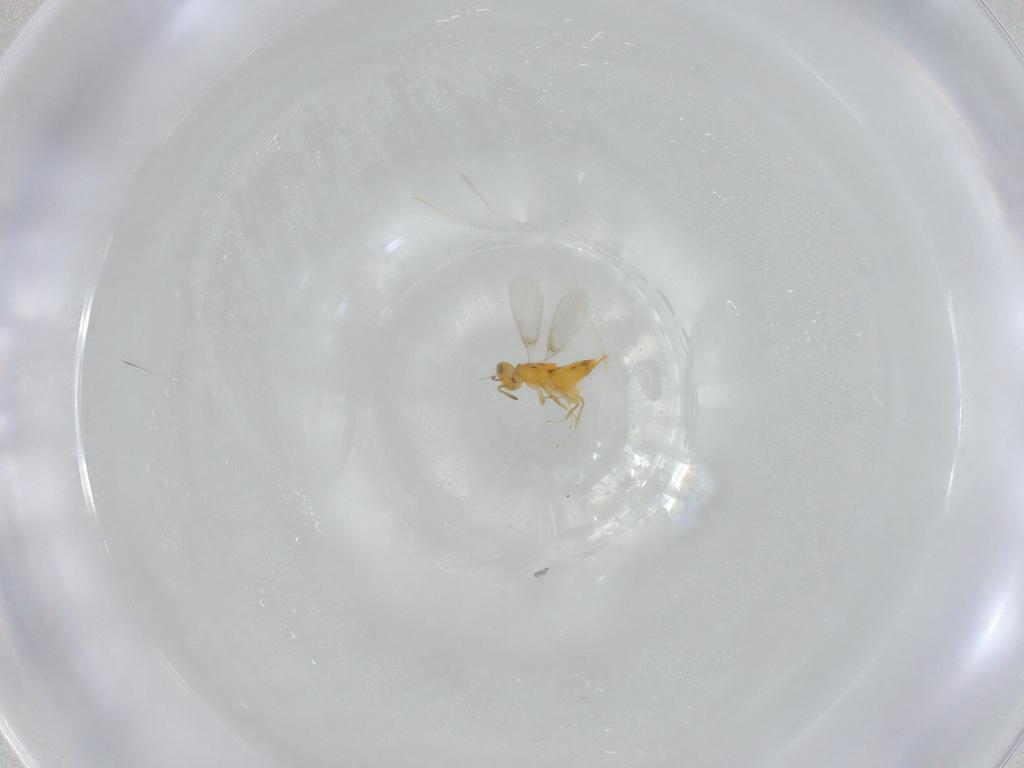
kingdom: Animalia
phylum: Arthropoda
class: Insecta
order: Hymenoptera
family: Aphelinidae
